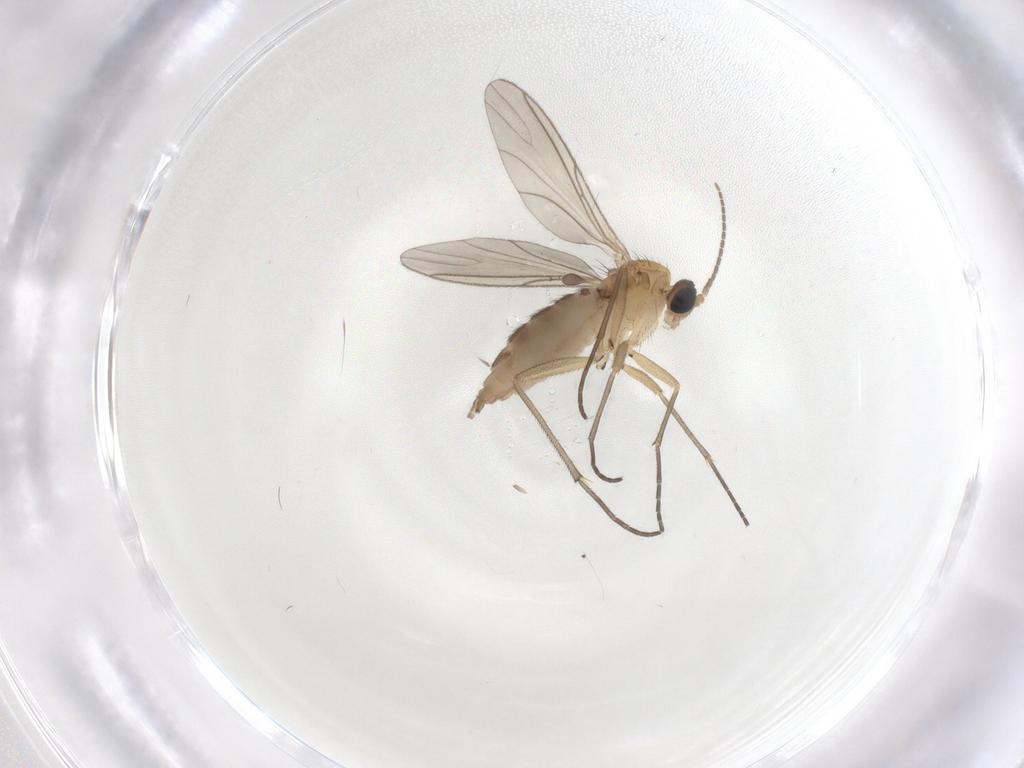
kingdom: Animalia
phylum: Arthropoda
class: Insecta
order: Diptera
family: Sciaridae
